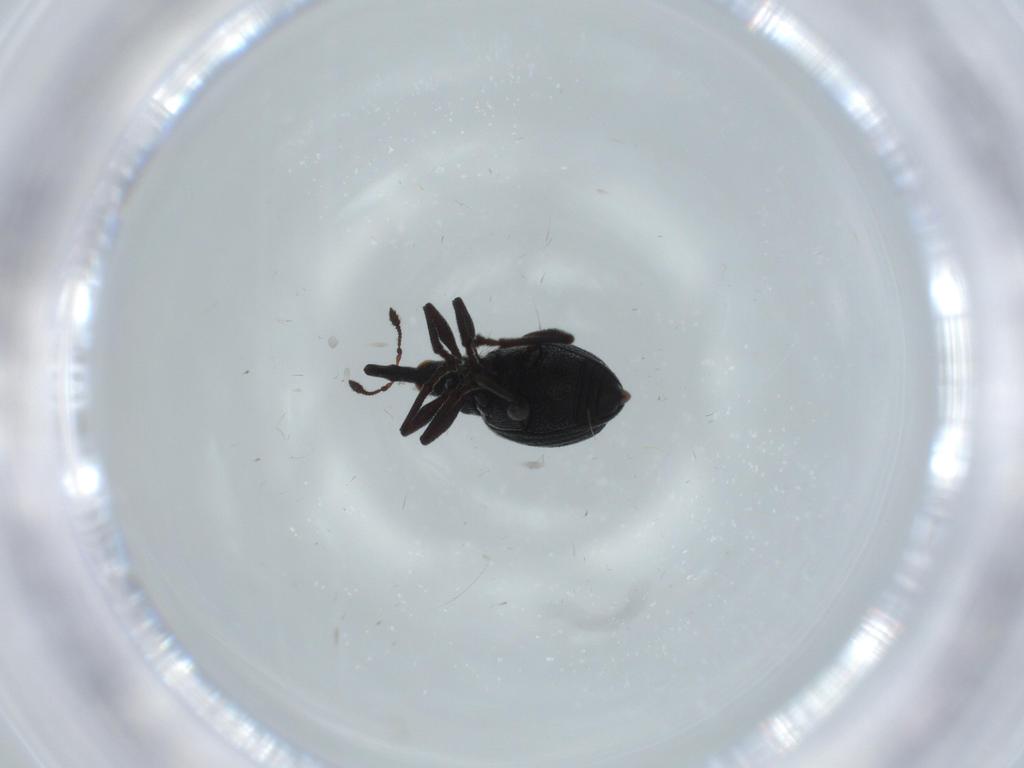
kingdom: Animalia
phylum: Arthropoda
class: Insecta
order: Coleoptera
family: Brentidae
